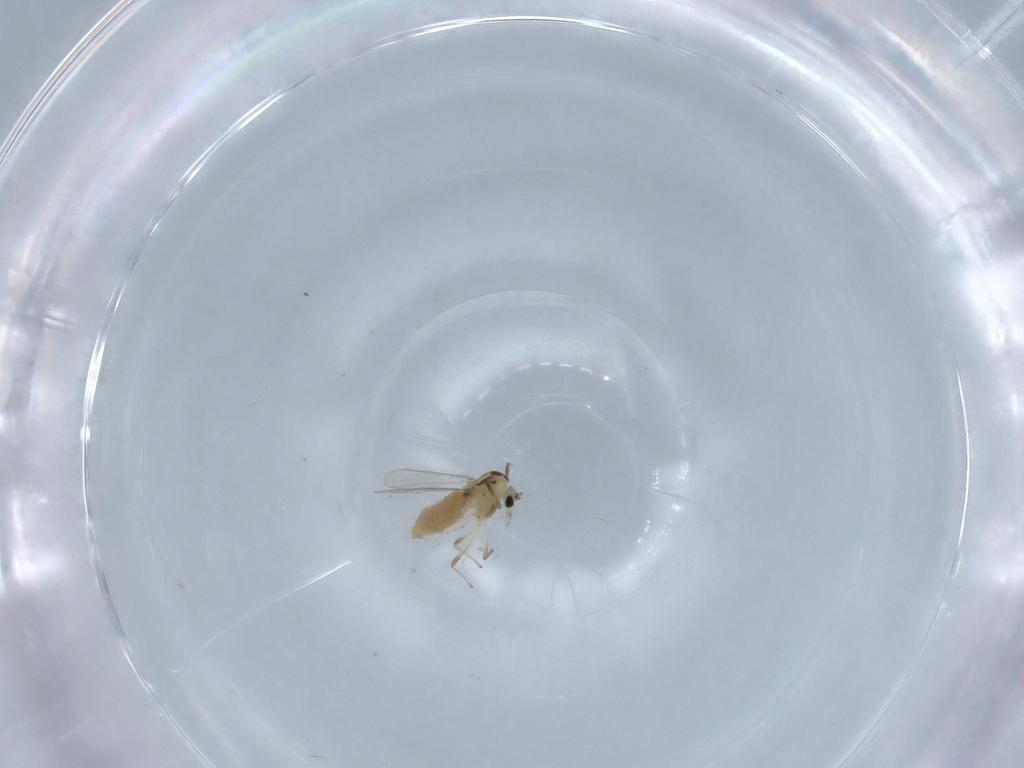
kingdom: Animalia
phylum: Arthropoda
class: Insecta
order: Diptera
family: Chironomidae
